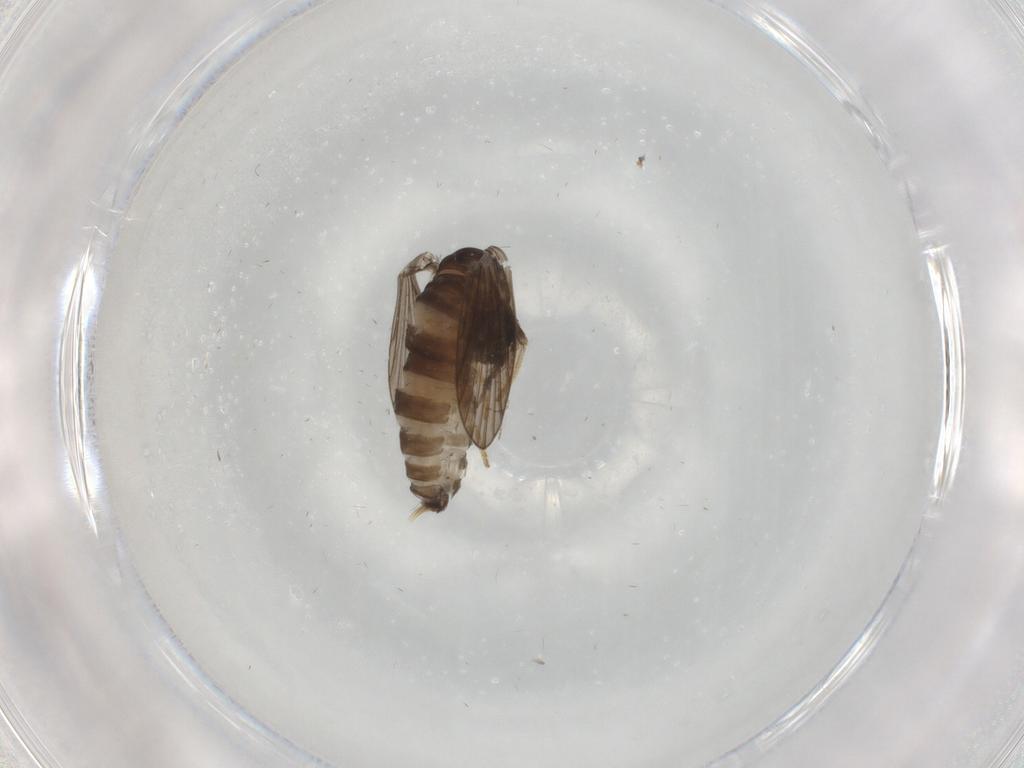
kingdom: Animalia
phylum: Arthropoda
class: Insecta
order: Diptera
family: Psychodidae
